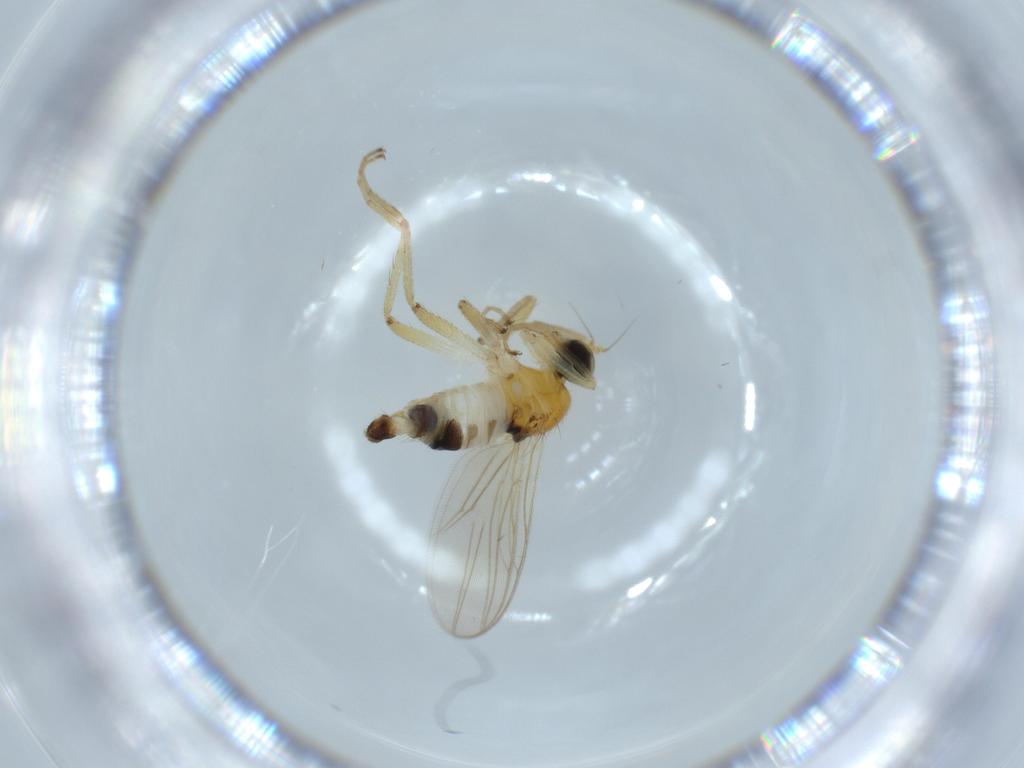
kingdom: Animalia
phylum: Arthropoda
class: Insecta
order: Diptera
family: Hybotidae
